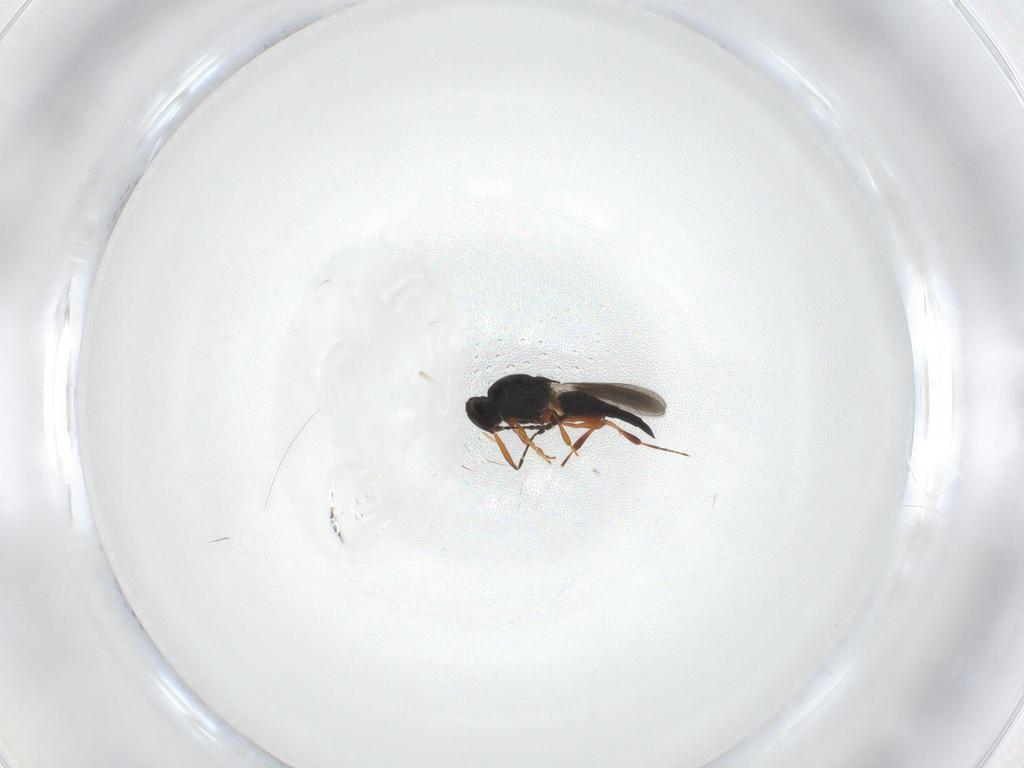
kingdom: Animalia
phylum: Arthropoda
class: Insecta
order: Hymenoptera
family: Platygastridae
